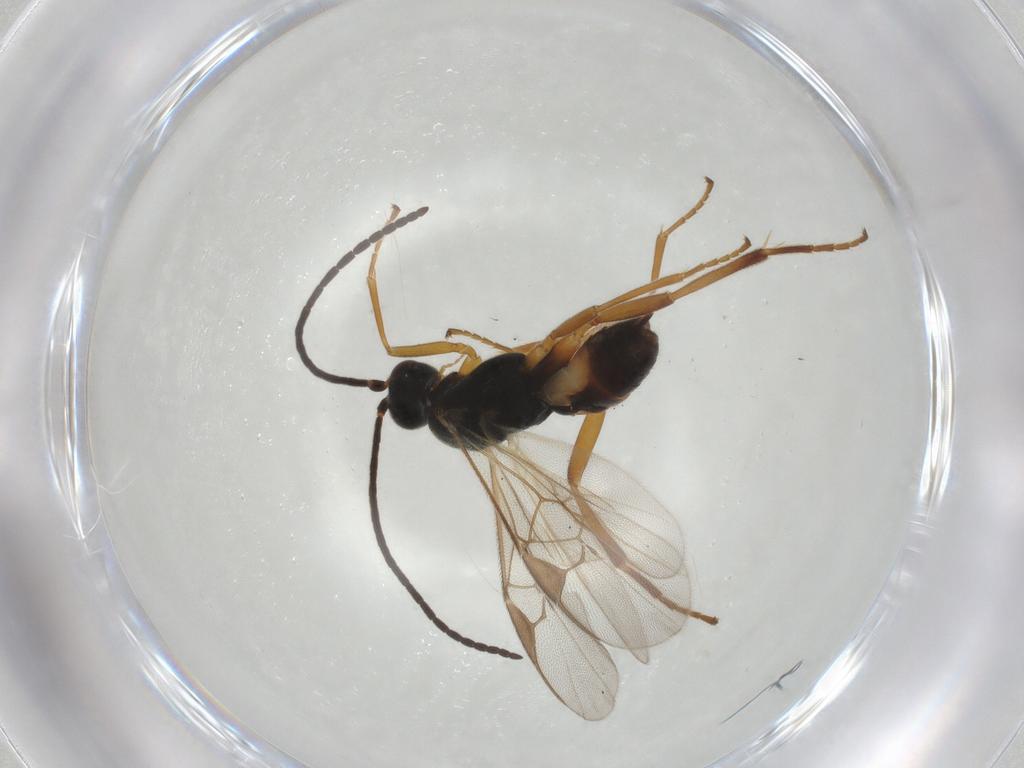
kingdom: Animalia
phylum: Arthropoda
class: Insecta
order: Hymenoptera
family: Braconidae
